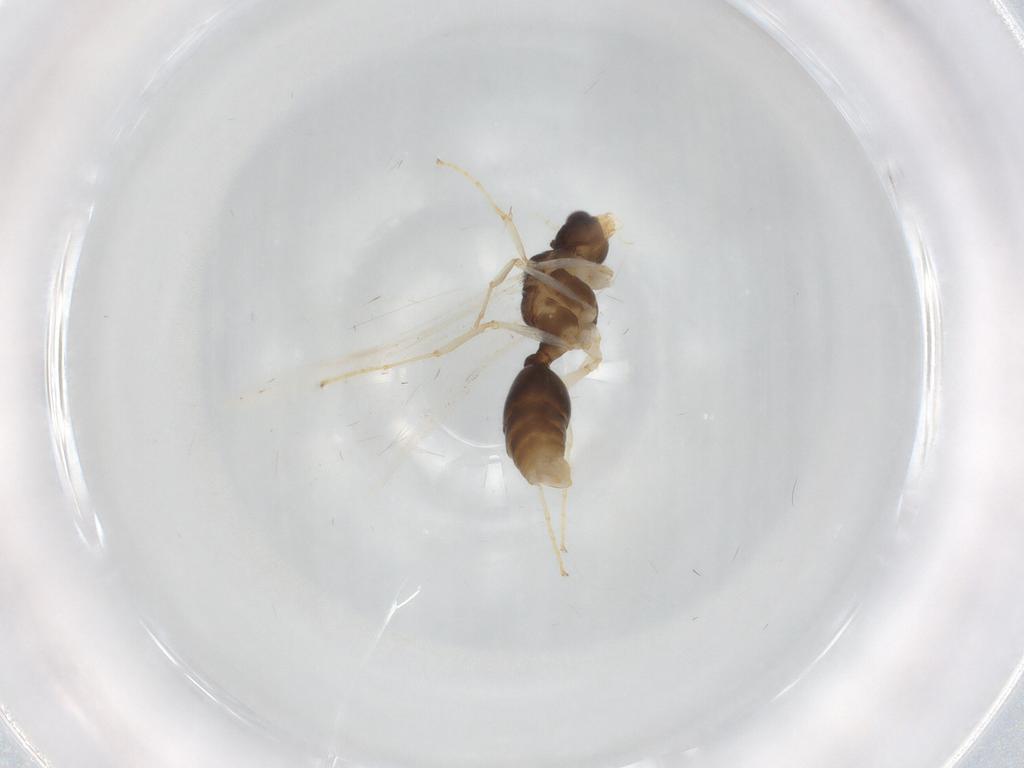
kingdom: Animalia
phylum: Arthropoda
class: Insecta
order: Hymenoptera
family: Formicidae
